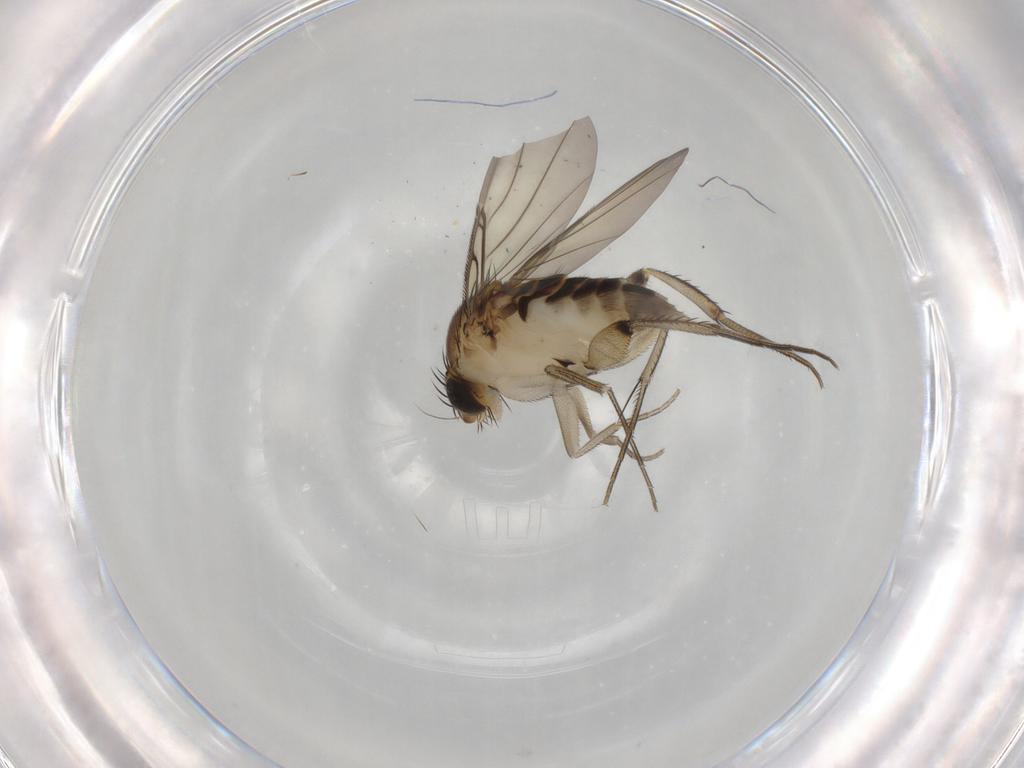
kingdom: Animalia
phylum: Arthropoda
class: Insecta
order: Diptera
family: Phoridae
